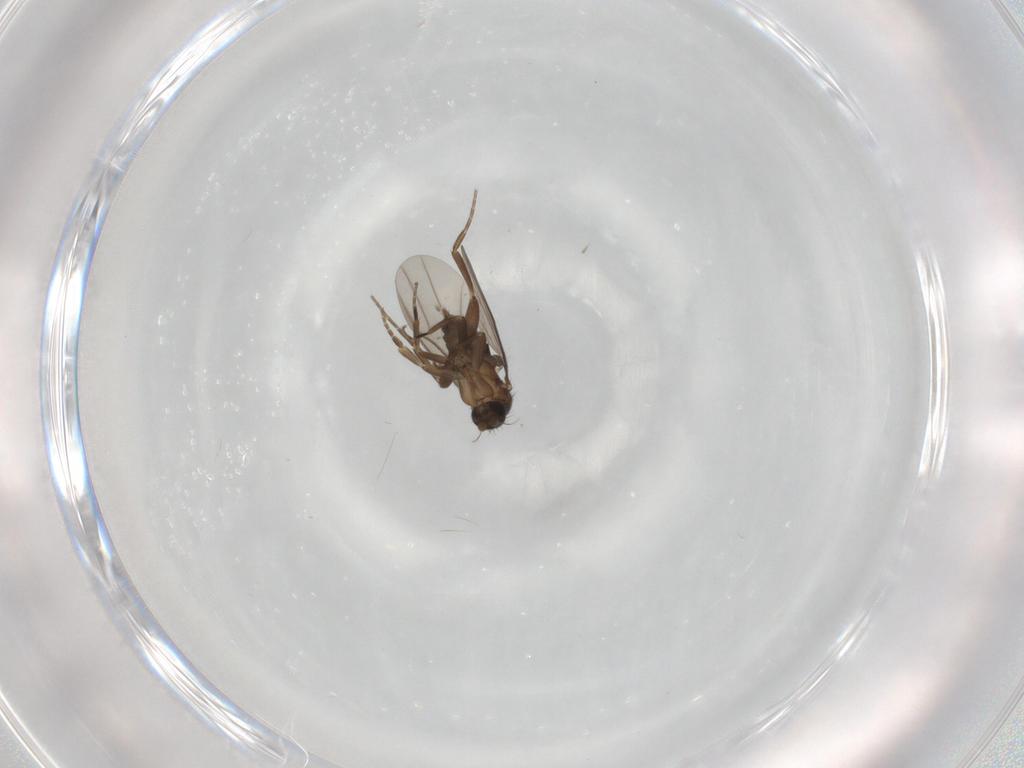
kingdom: Animalia
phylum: Arthropoda
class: Insecta
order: Diptera
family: Phoridae
